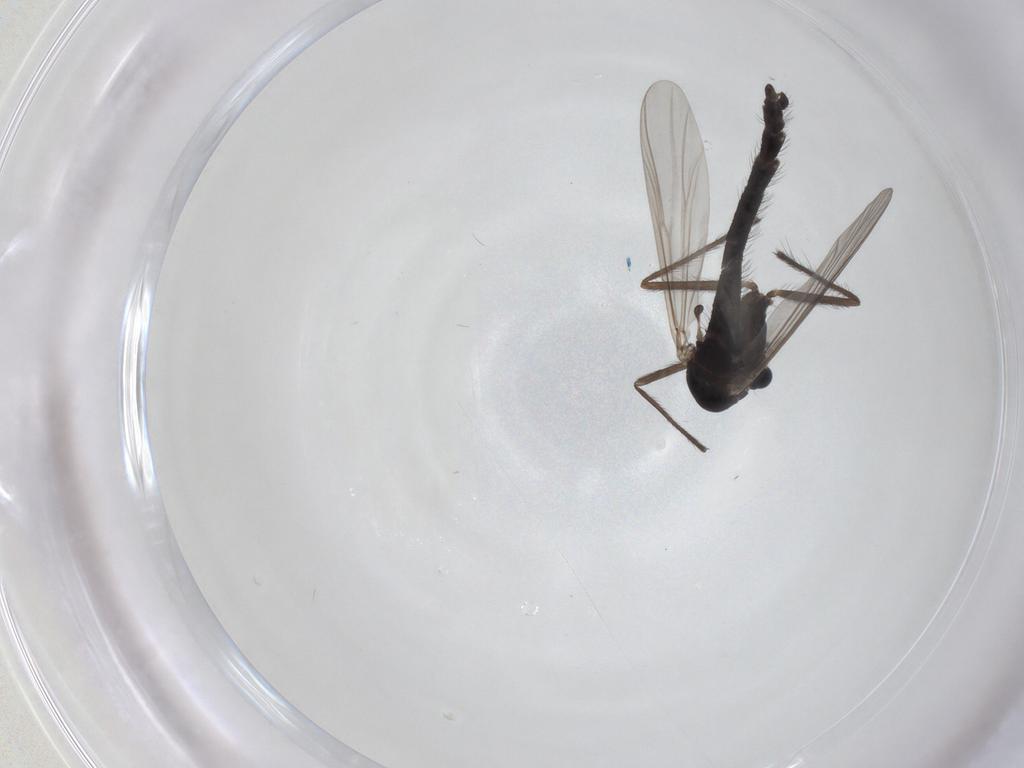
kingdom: Animalia
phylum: Arthropoda
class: Insecta
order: Diptera
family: Chironomidae
